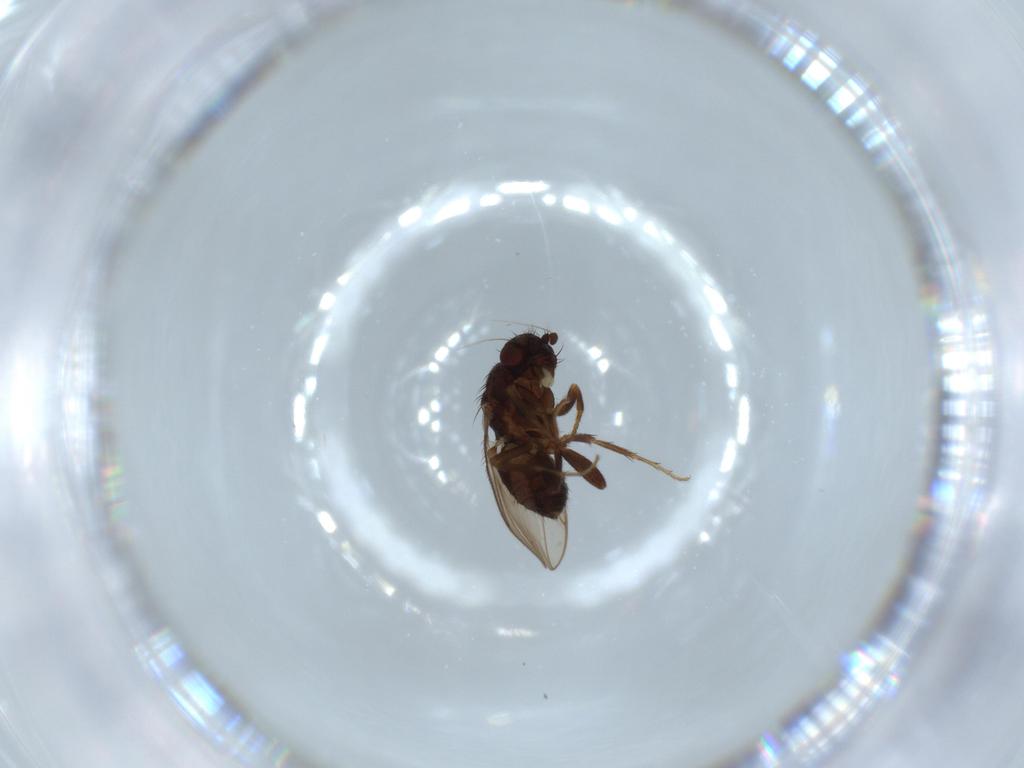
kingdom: Animalia
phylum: Arthropoda
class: Insecta
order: Diptera
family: Sphaeroceridae
